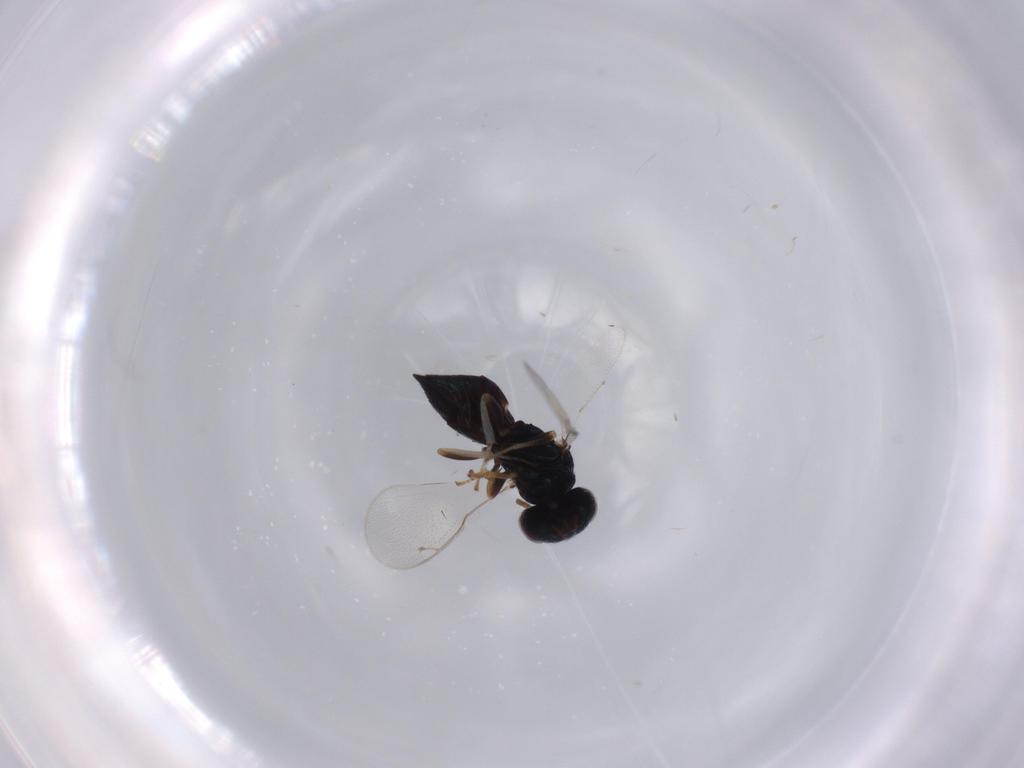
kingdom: Animalia
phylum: Arthropoda
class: Insecta
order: Hymenoptera
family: Pteromalidae
